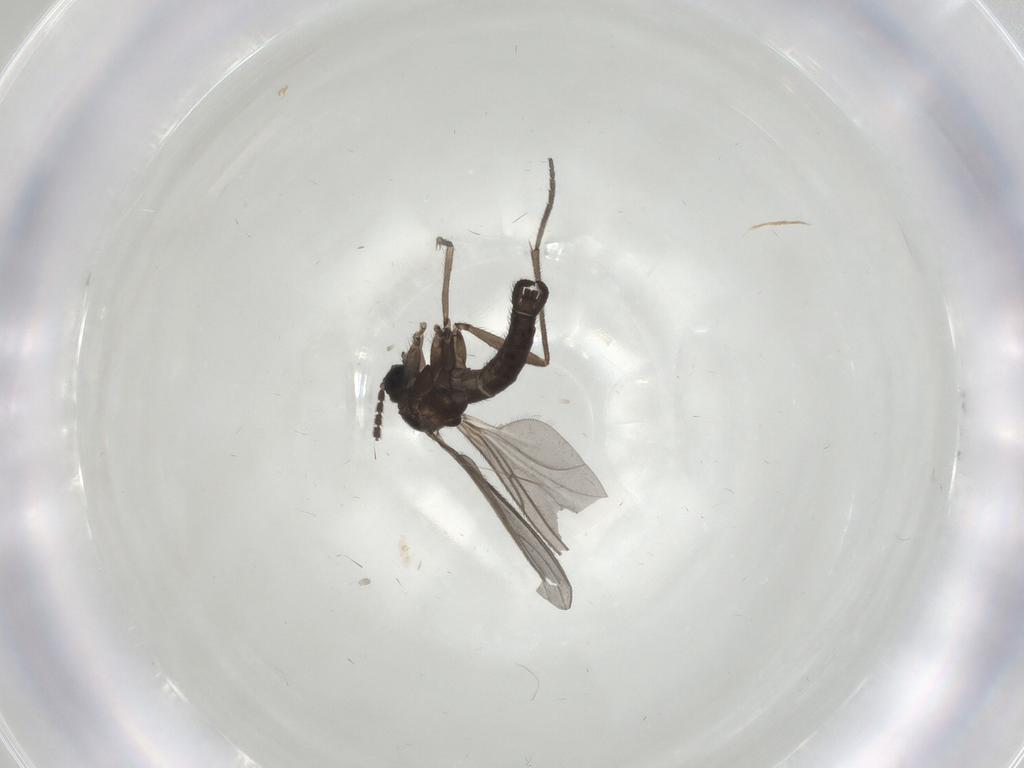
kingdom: Animalia
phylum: Arthropoda
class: Insecta
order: Diptera
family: Sciaridae
